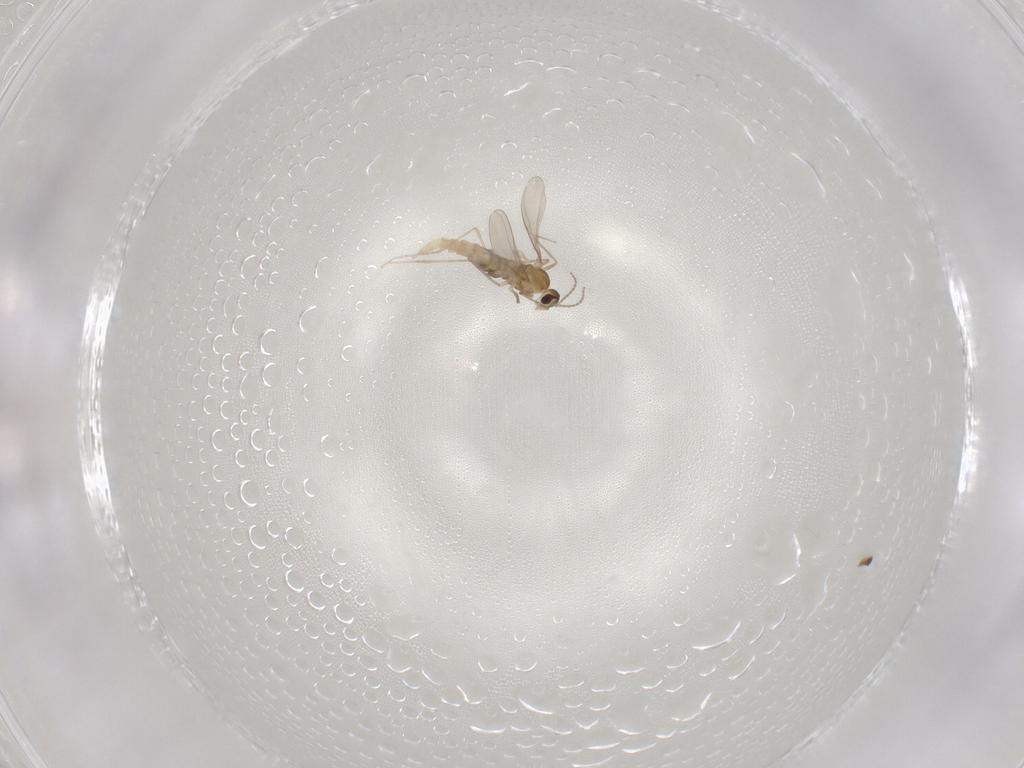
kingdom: Animalia
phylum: Arthropoda
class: Insecta
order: Diptera
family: Cecidomyiidae
